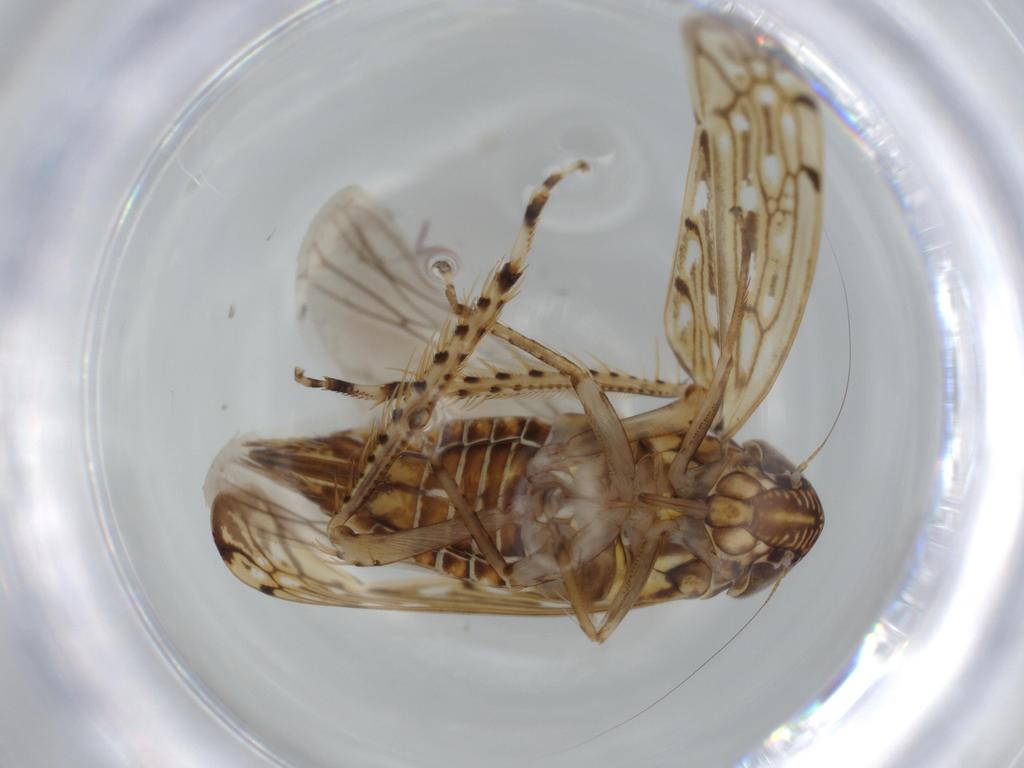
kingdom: Animalia
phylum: Arthropoda
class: Insecta
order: Hemiptera
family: Cicadellidae
